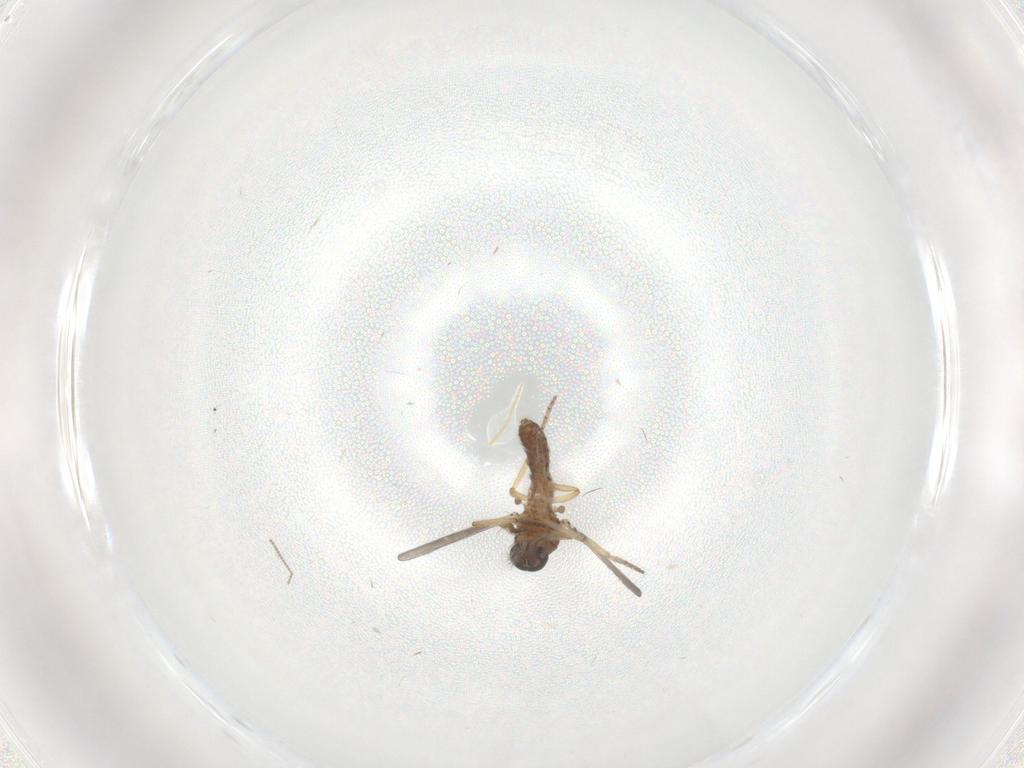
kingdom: Animalia
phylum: Arthropoda
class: Insecta
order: Diptera
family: Ceratopogonidae
